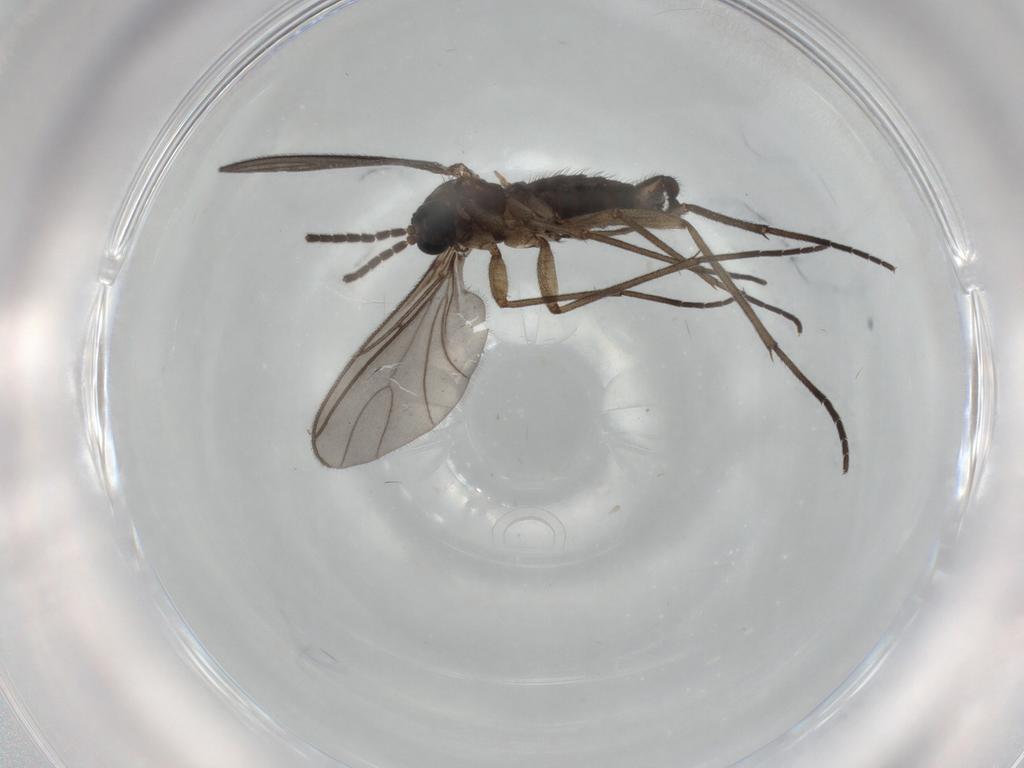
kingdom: Animalia
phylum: Arthropoda
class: Insecta
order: Diptera
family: Sciaridae
